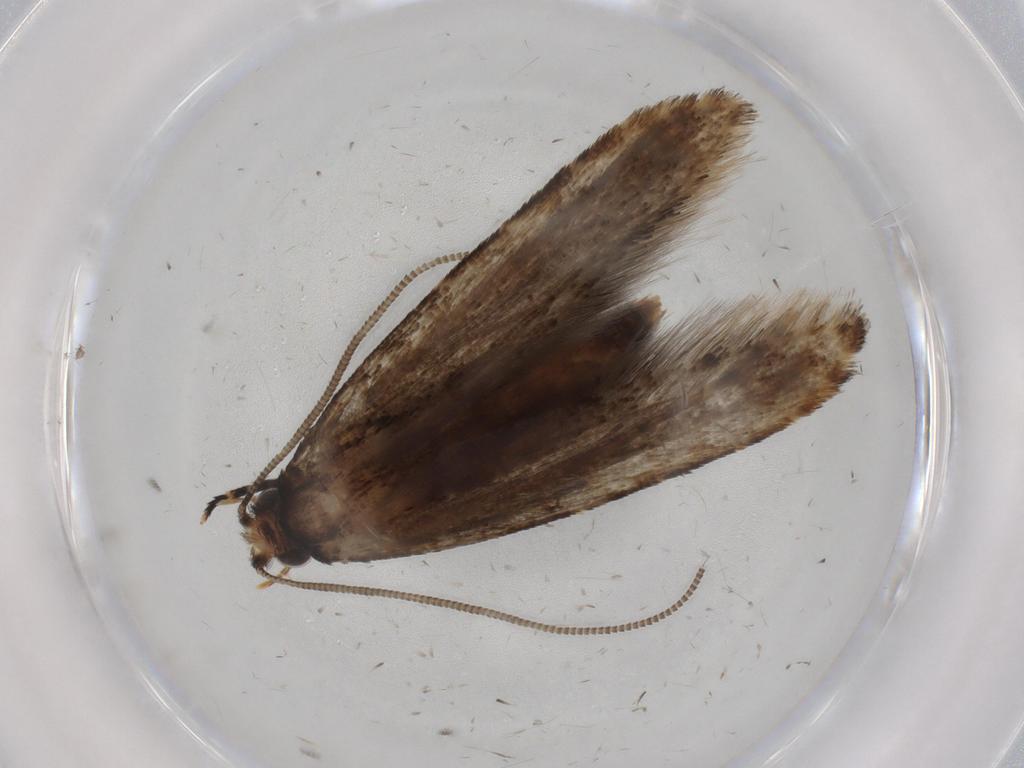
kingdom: Animalia
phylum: Arthropoda
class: Insecta
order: Lepidoptera
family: Tineidae
